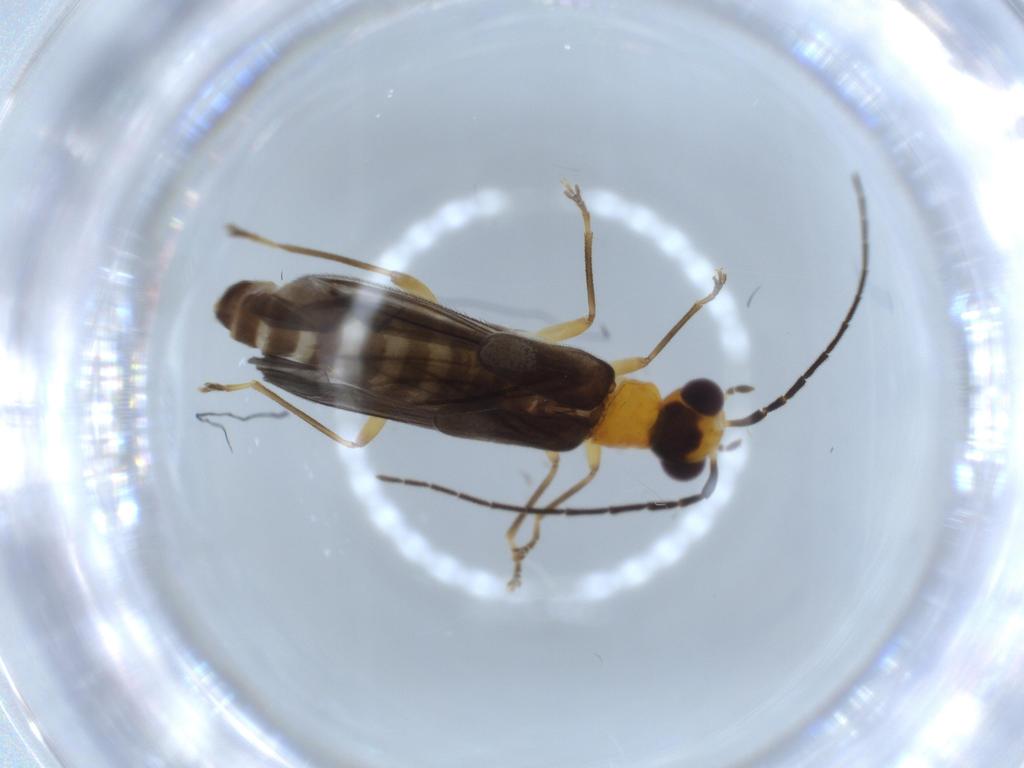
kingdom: Animalia
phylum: Arthropoda
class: Insecta
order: Coleoptera
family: Cantharidae
